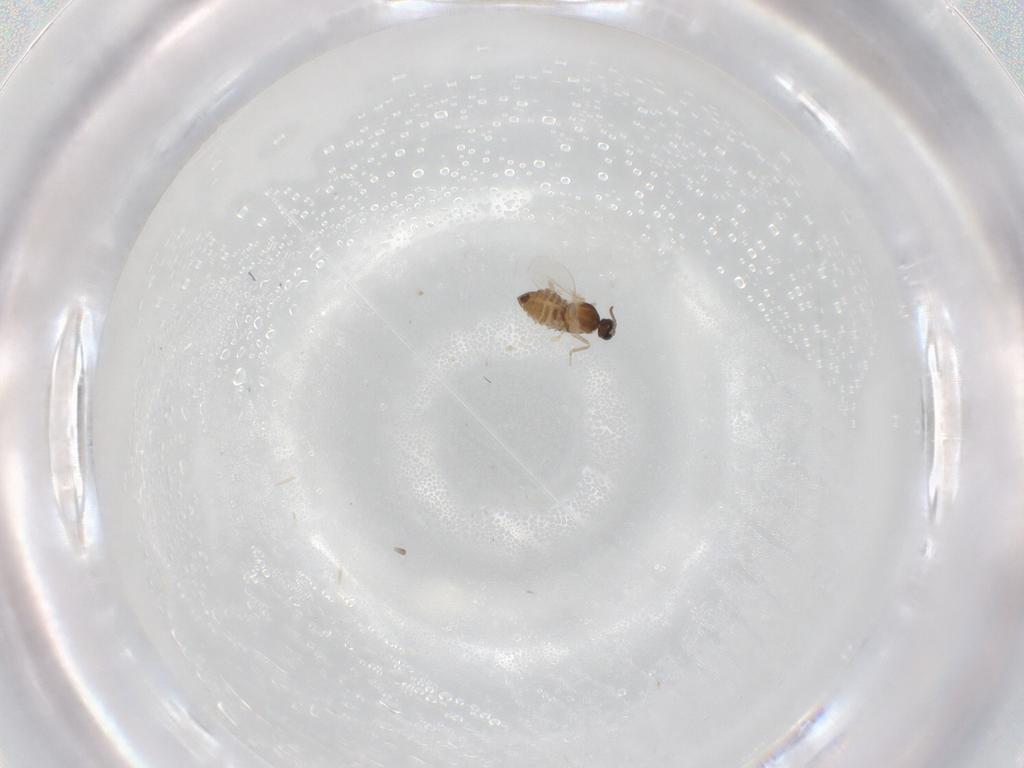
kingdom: Animalia
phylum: Arthropoda
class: Insecta
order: Diptera
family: Cecidomyiidae
